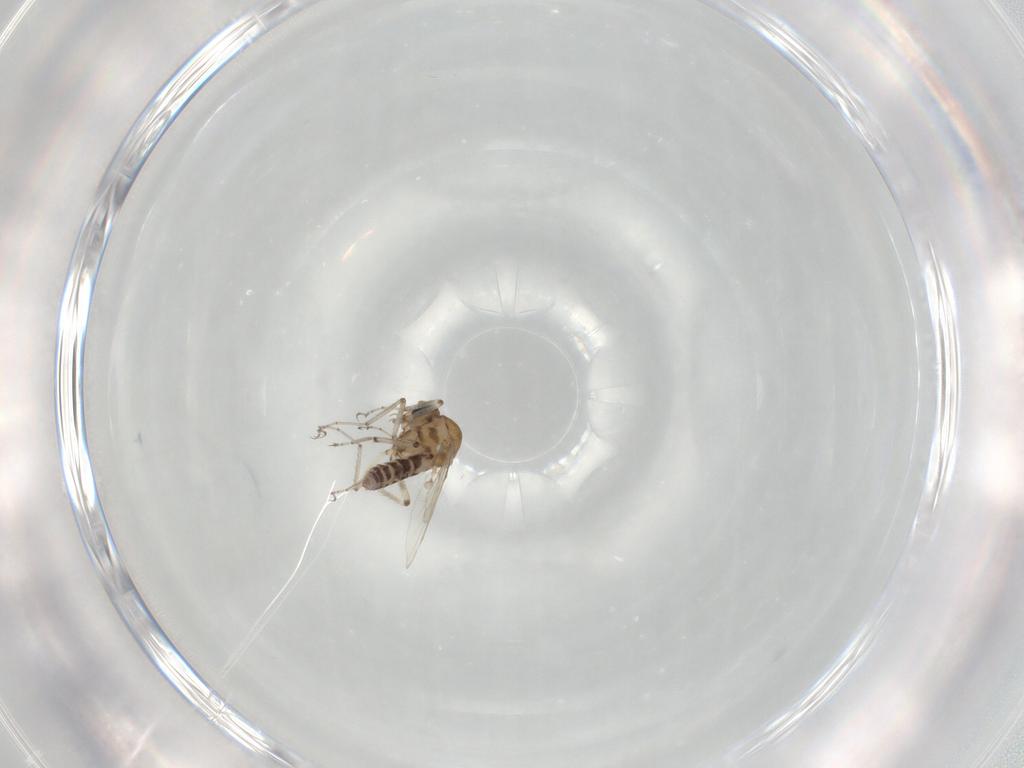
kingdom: Animalia
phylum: Arthropoda
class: Insecta
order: Diptera
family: Ceratopogonidae
